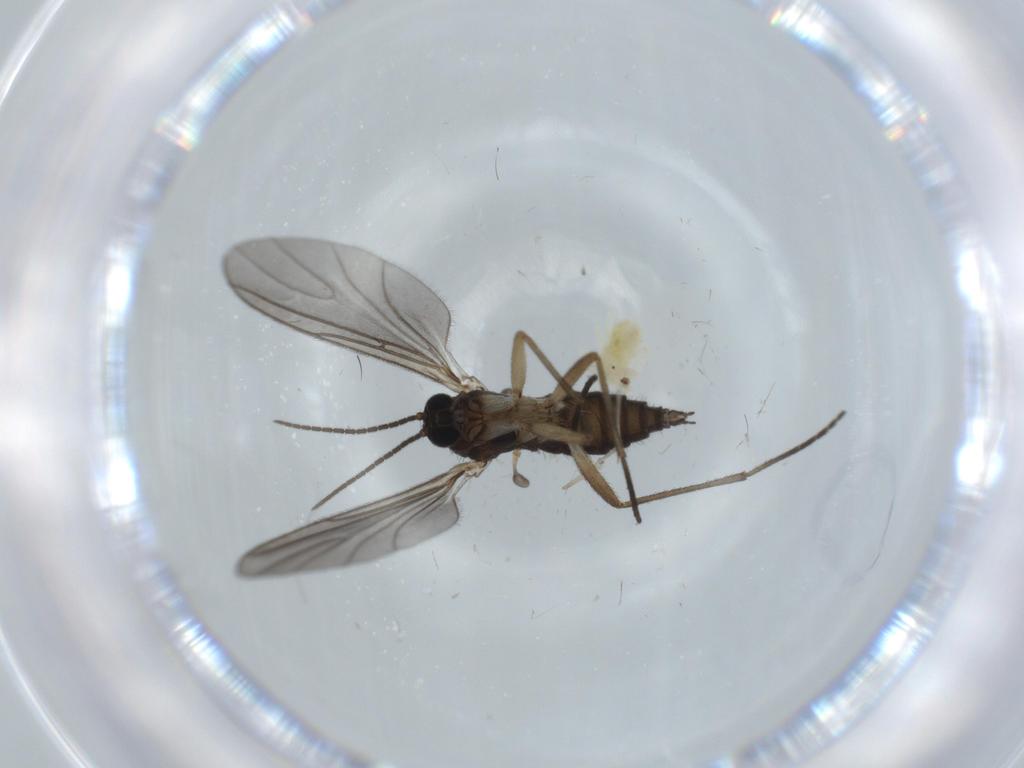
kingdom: Animalia
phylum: Arthropoda
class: Insecta
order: Diptera
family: Sciaridae
